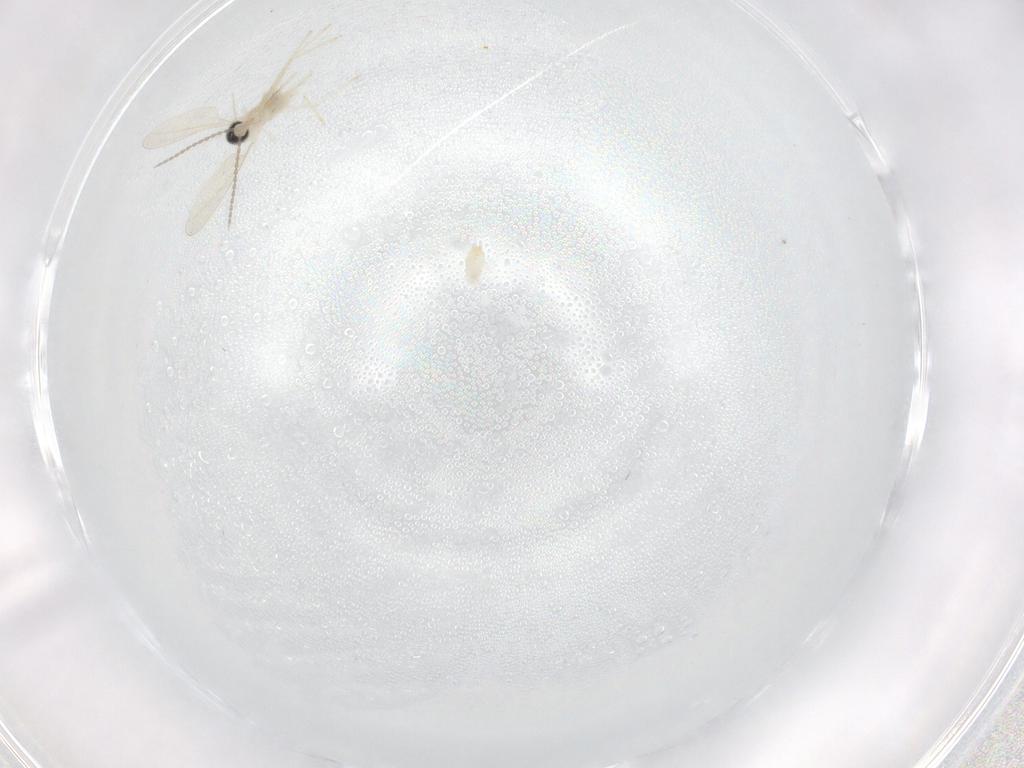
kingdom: Animalia
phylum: Arthropoda
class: Insecta
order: Diptera
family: Cecidomyiidae
